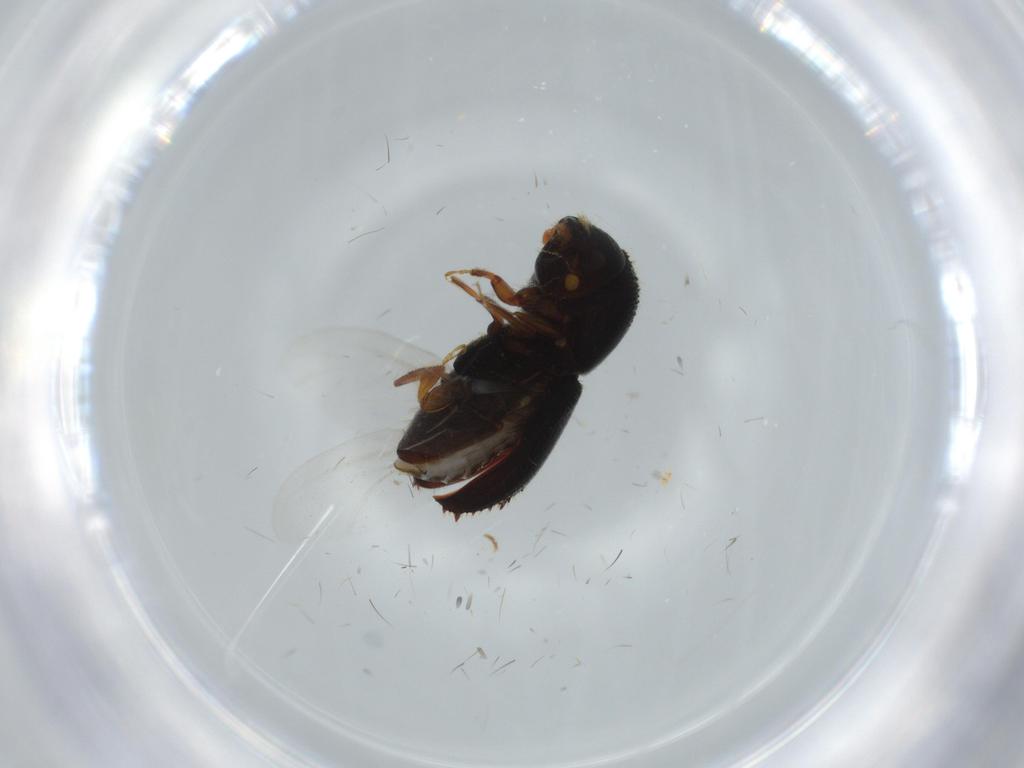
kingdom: Animalia
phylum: Arthropoda
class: Insecta
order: Coleoptera
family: Curculionidae
